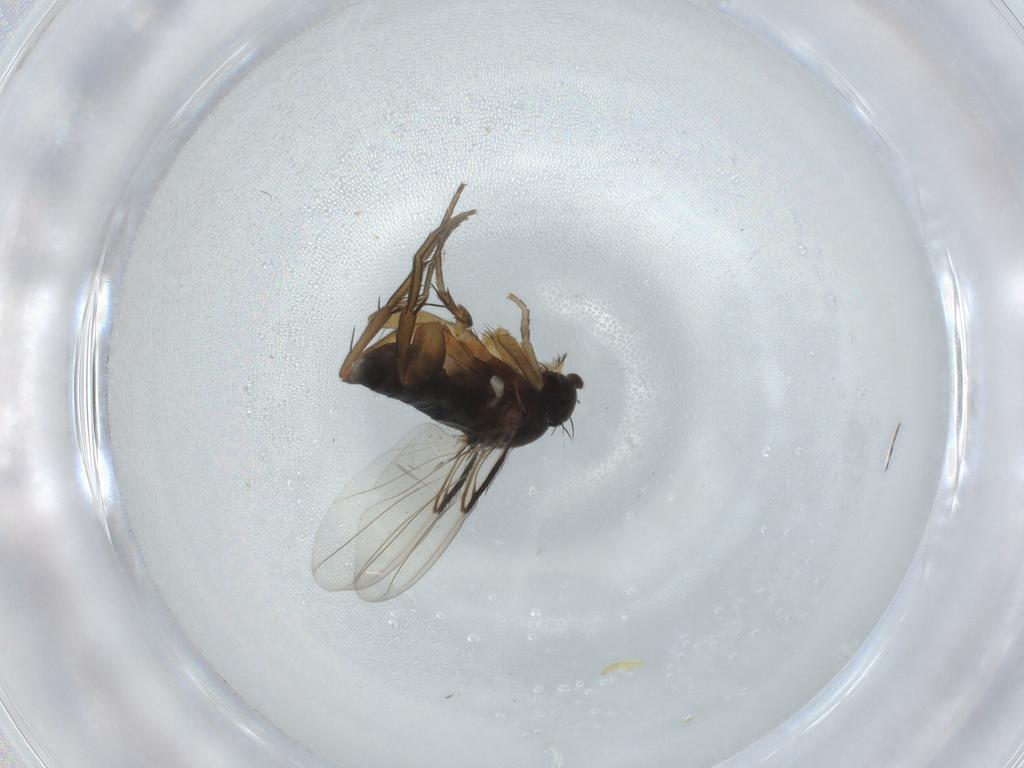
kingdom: Animalia
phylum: Arthropoda
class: Insecta
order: Diptera
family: Phoridae
